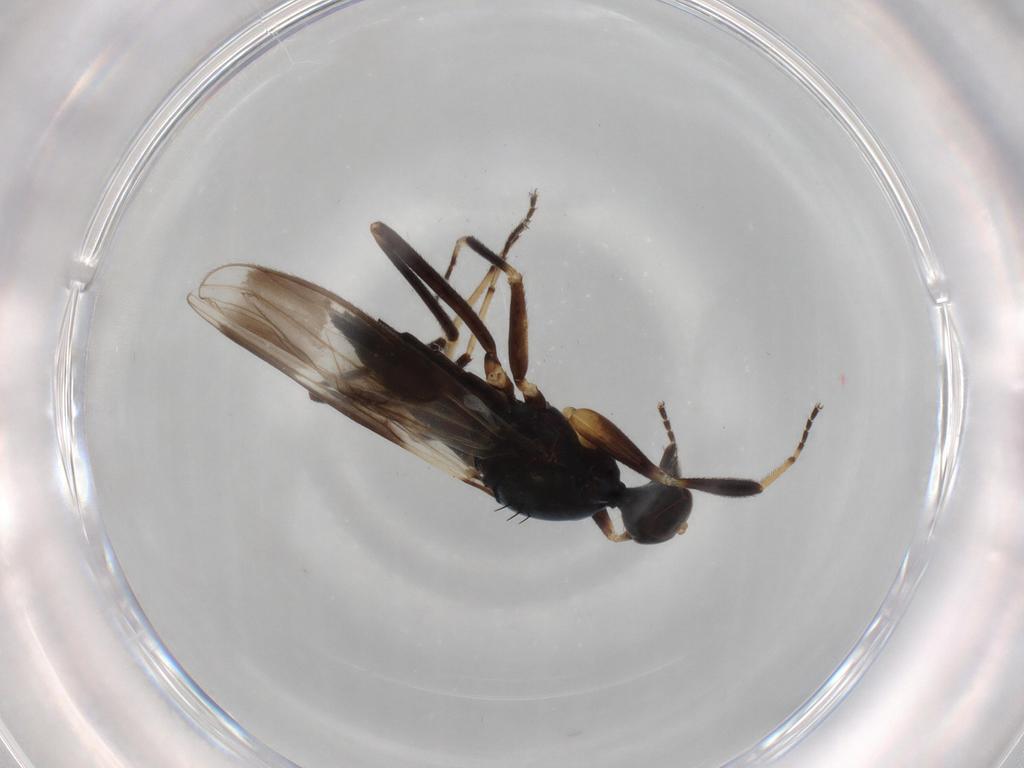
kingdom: Animalia
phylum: Arthropoda
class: Insecta
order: Diptera
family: Hybotidae
